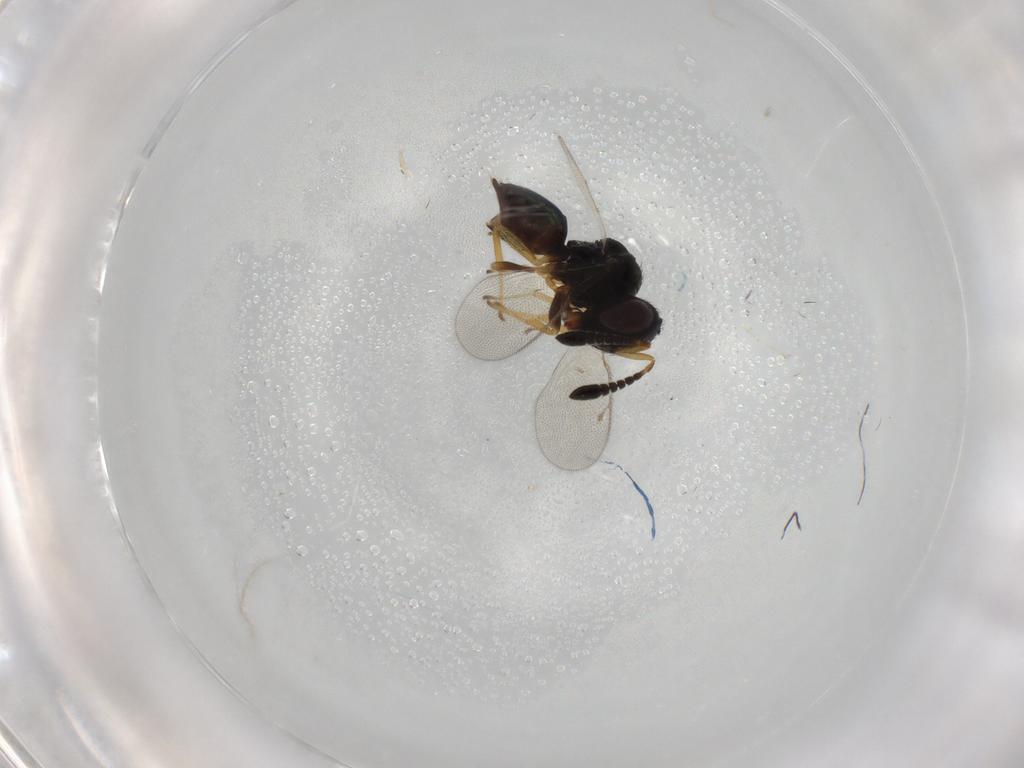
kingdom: Animalia
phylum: Arthropoda
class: Insecta
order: Hymenoptera
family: Pteromalidae
